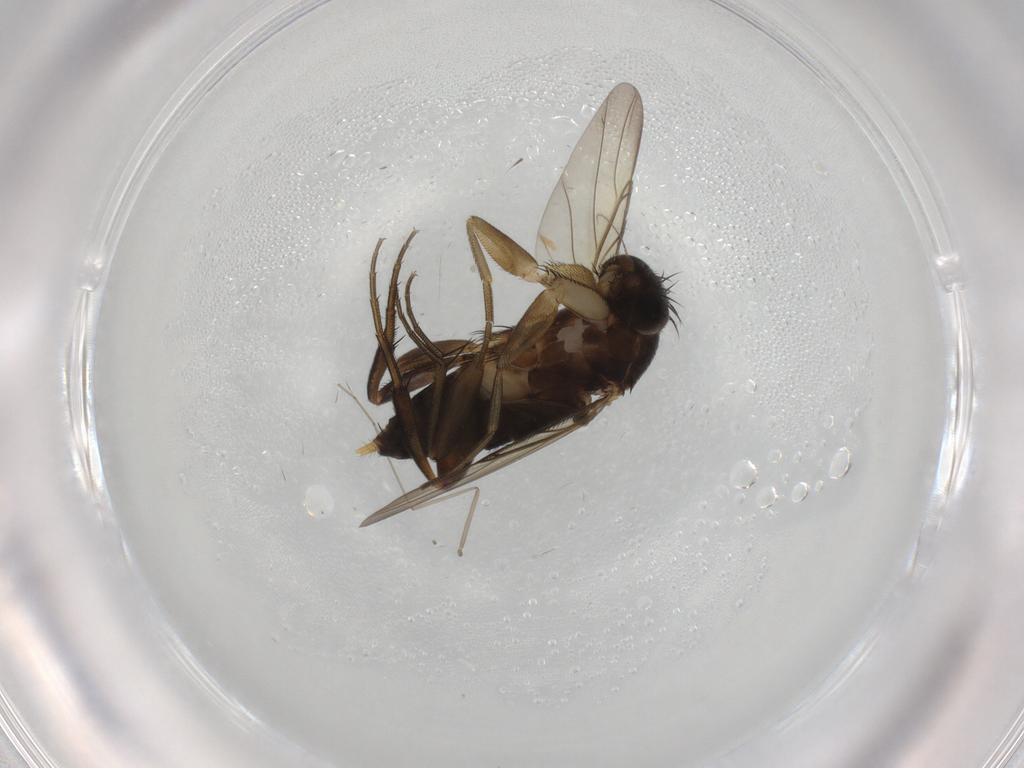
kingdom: Animalia
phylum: Arthropoda
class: Insecta
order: Diptera
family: Phoridae
